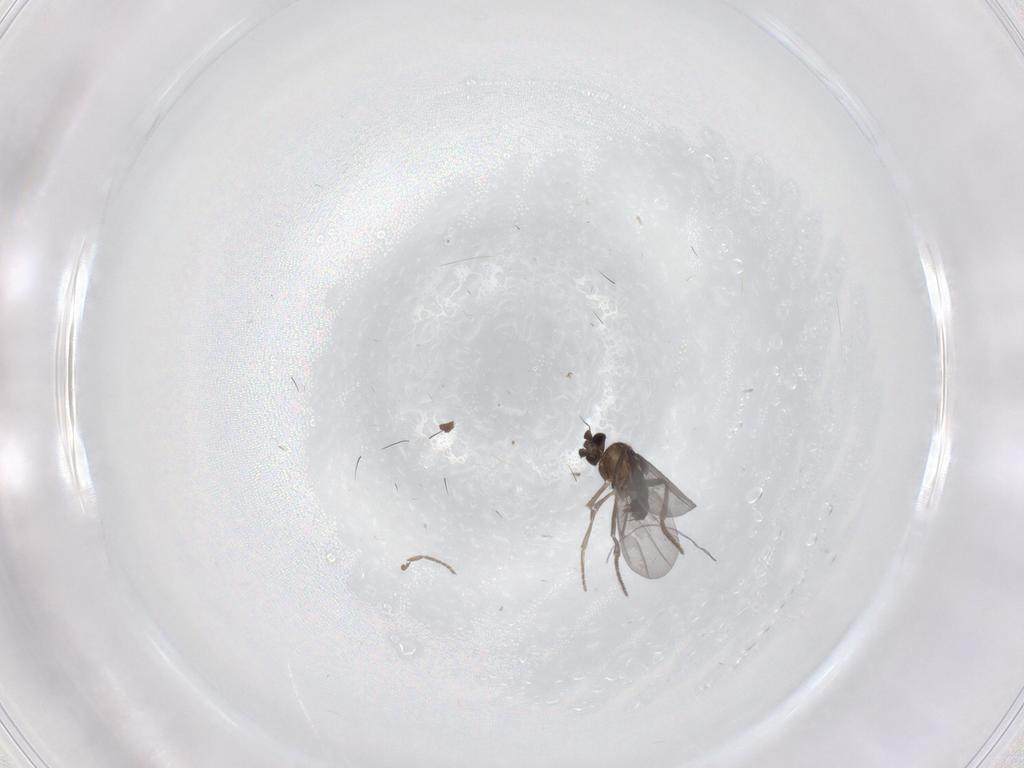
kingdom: Animalia
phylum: Arthropoda
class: Insecta
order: Diptera
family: Phoridae
